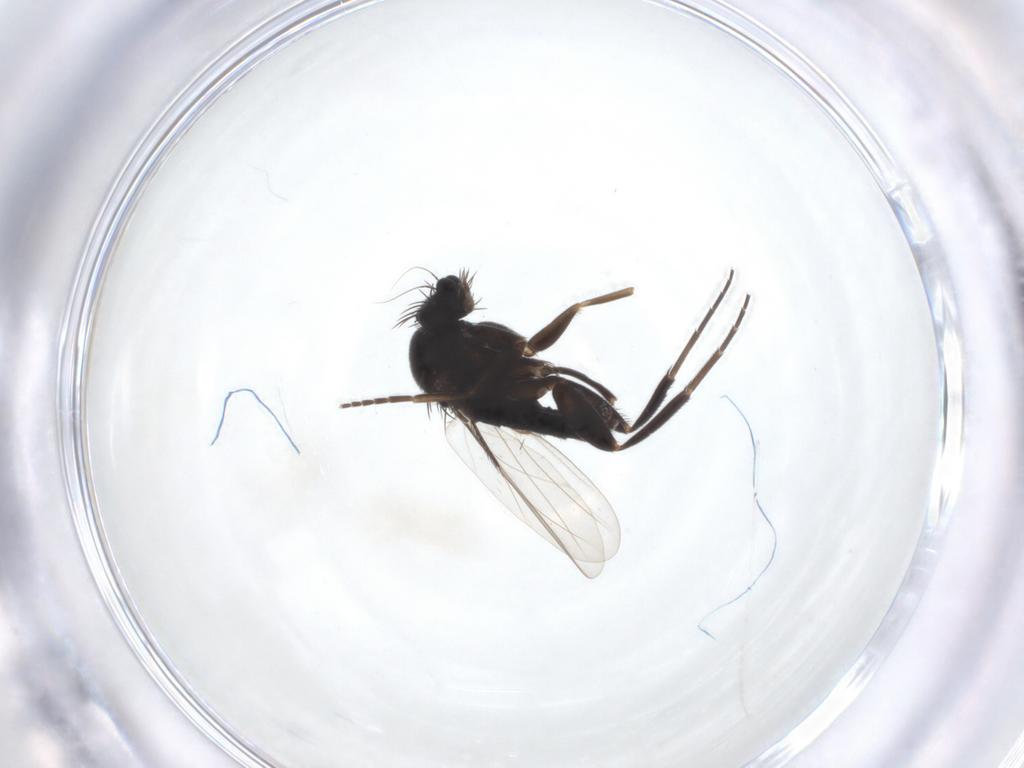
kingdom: Animalia
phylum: Arthropoda
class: Insecta
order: Diptera
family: Phoridae
